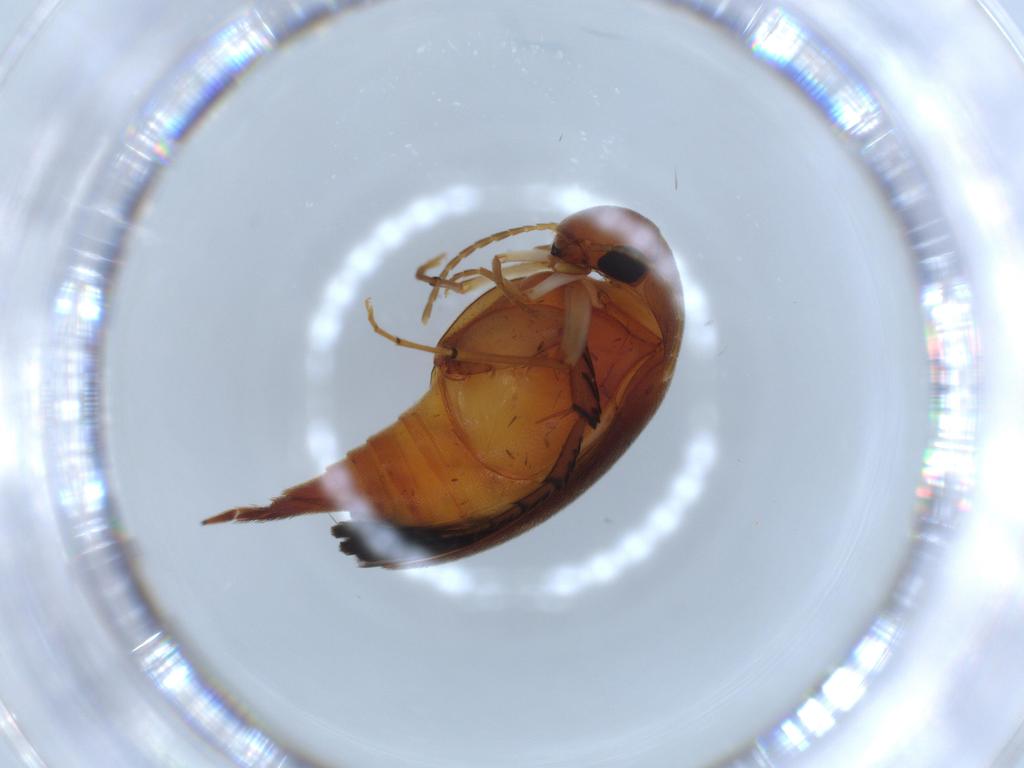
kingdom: Animalia
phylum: Arthropoda
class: Insecta
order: Coleoptera
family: Mordellidae
